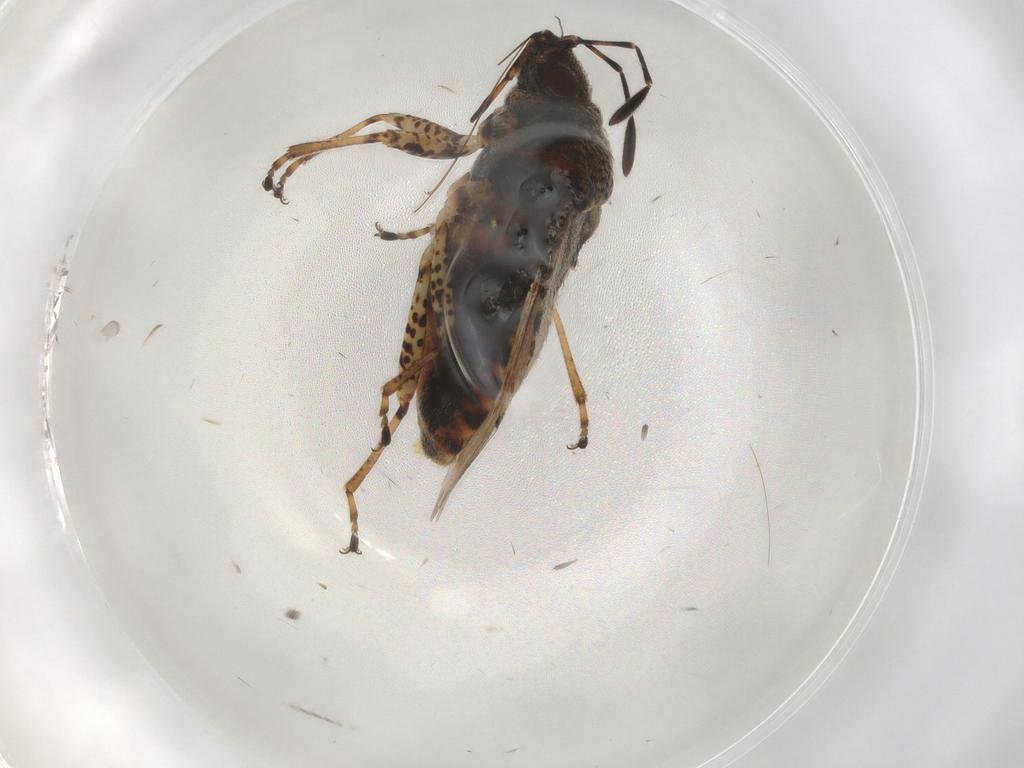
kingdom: Animalia
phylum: Arthropoda
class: Insecta
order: Hemiptera
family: Lygaeidae
